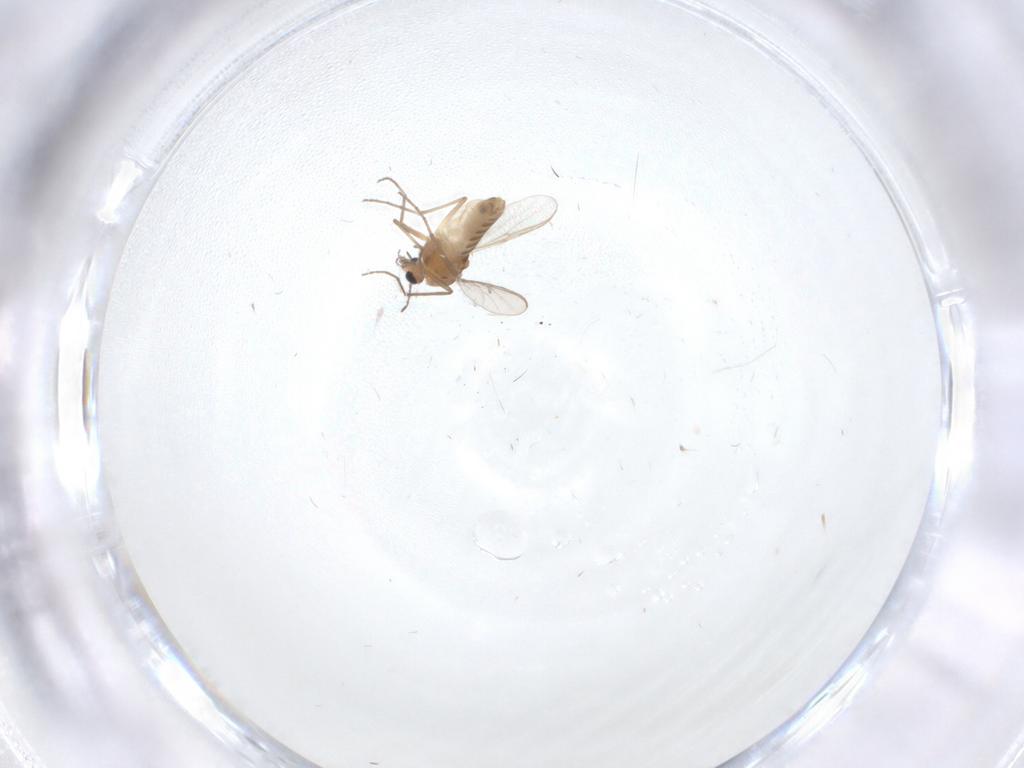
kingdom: Animalia
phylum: Arthropoda
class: Insecta
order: Diptera
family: Chironomidae
